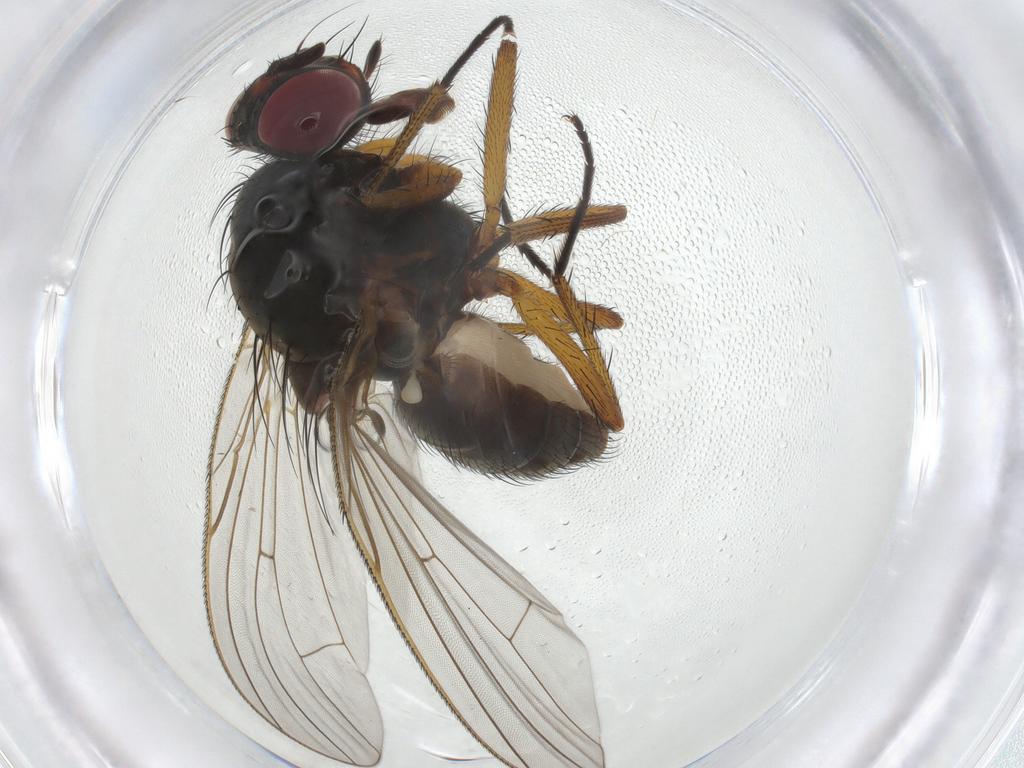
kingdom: Animalia
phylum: Arthropoda
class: Insecta
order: Diptera
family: Anthomyiidae
